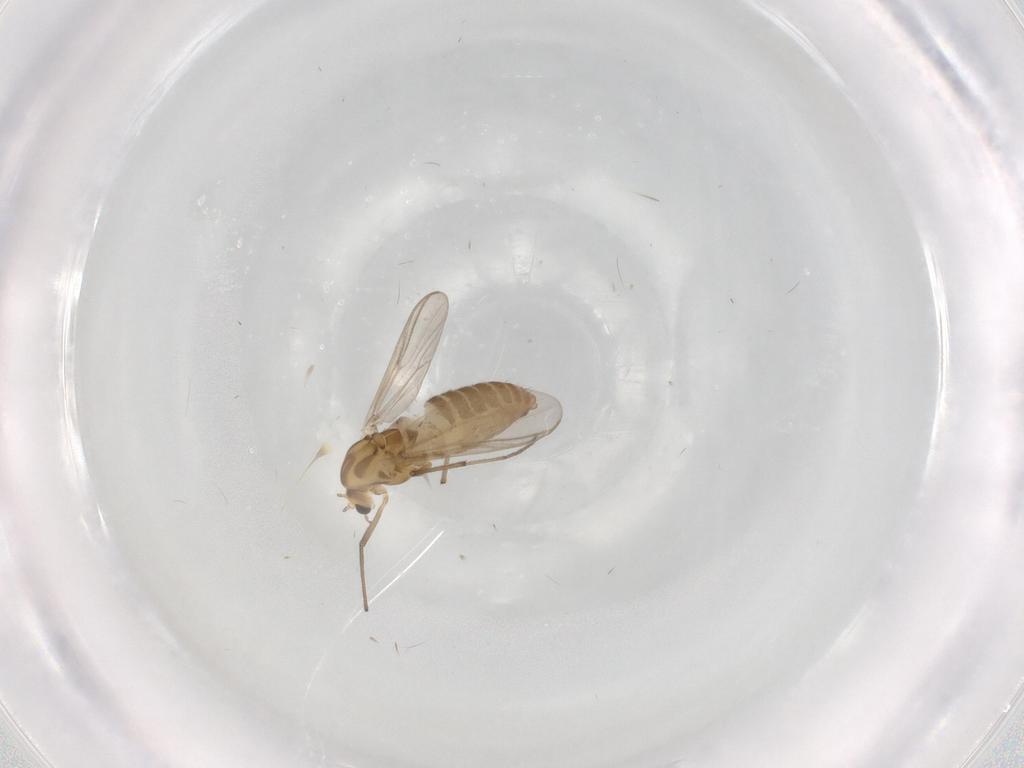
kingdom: Animalia
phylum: Arthropoda
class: Insecta
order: Diptera
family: Chironomidae
